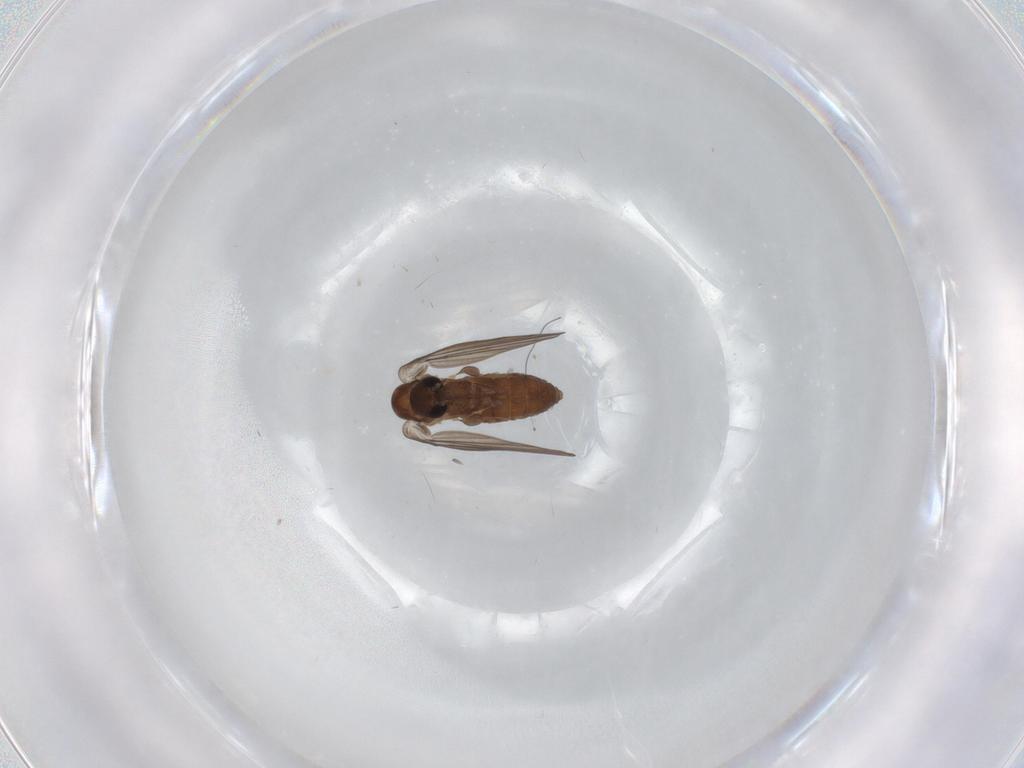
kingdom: Animalia
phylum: Arthropoda
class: Insecta
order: Diptera
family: Psychodidae
